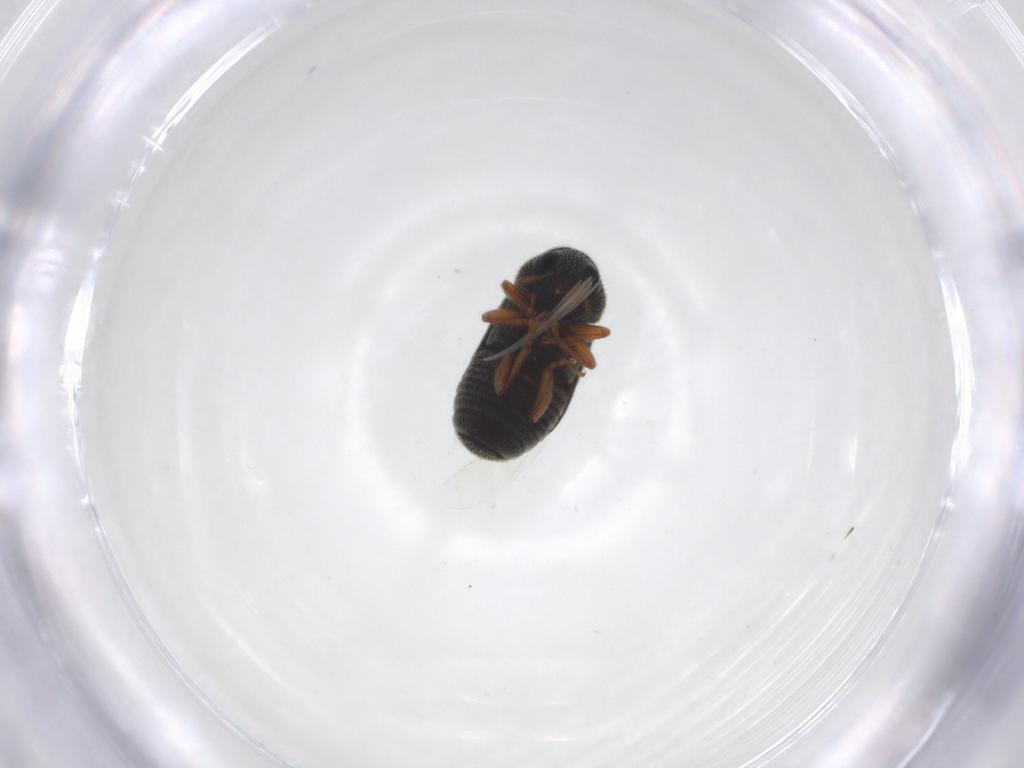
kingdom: Animalia
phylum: Arthropoda
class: Insecta
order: Coleoptera
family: Anthribidae
